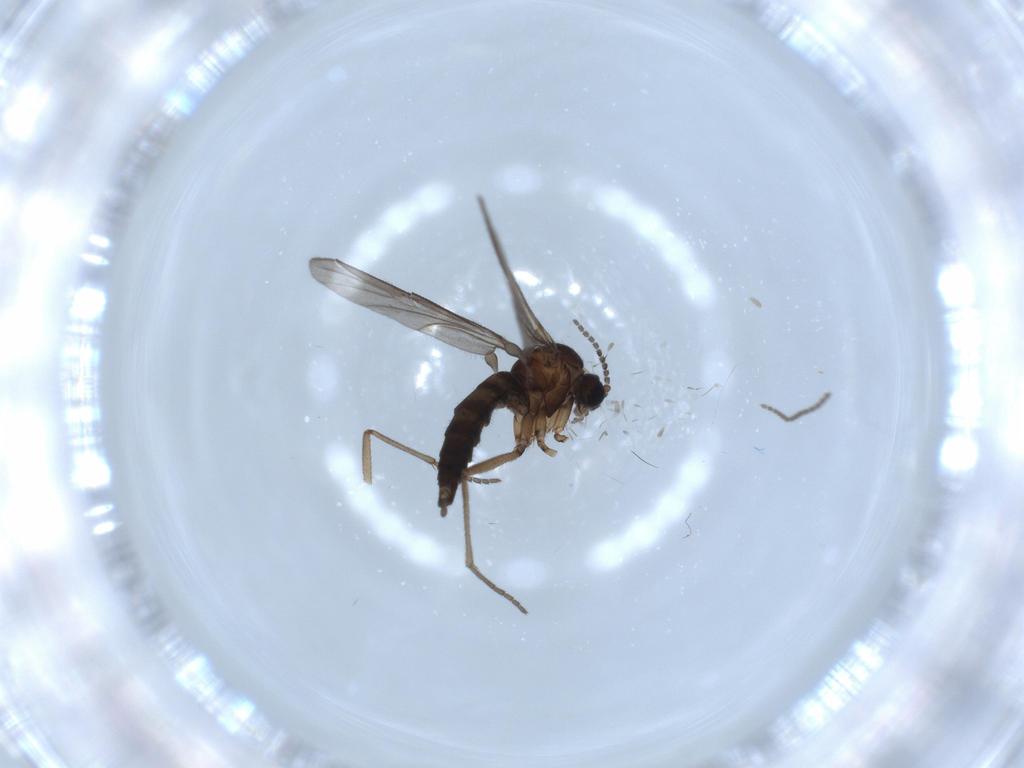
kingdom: Animalia
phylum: Arthropoda
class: Insecta
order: Diptera
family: Sciaridae
